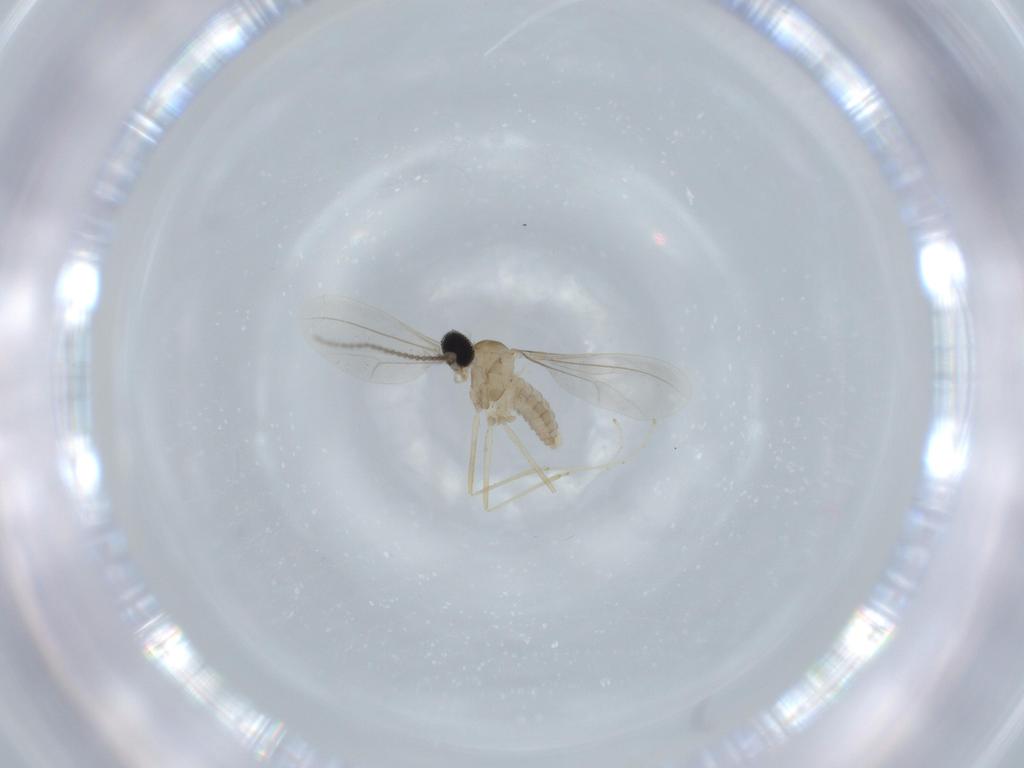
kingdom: Animalia
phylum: Arthropoda
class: Insecta
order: Diptera
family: Cecidomyiidae
